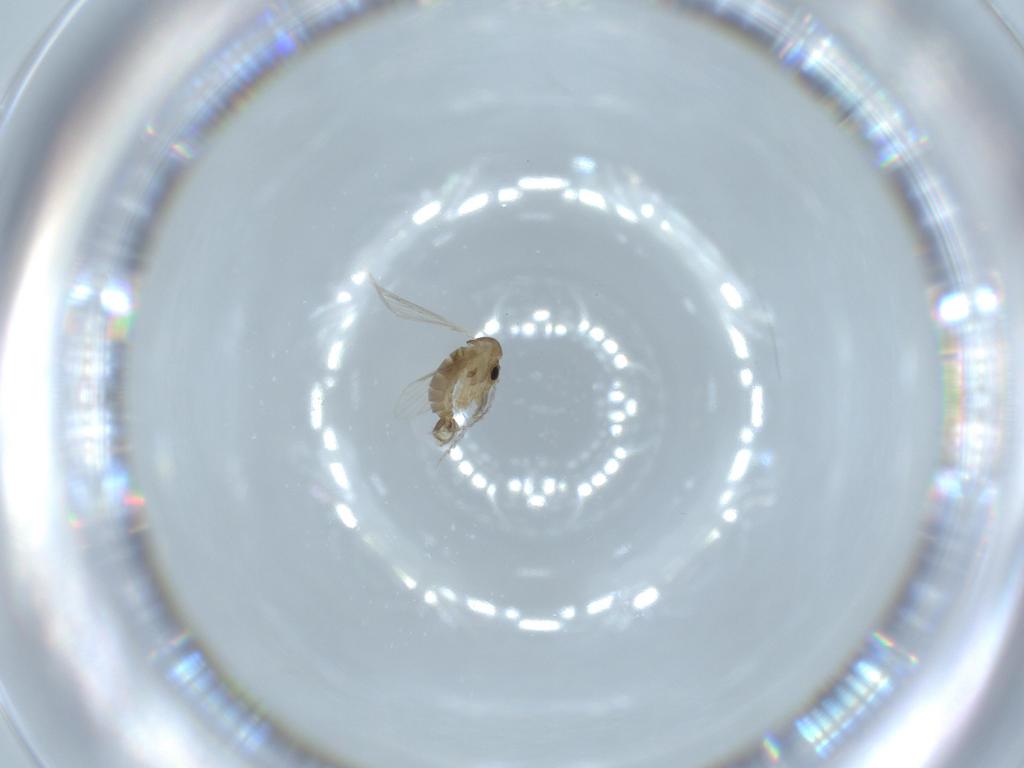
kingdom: Animalia
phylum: Arthropoda
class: Insecta
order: Diptera
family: Psychodidae
